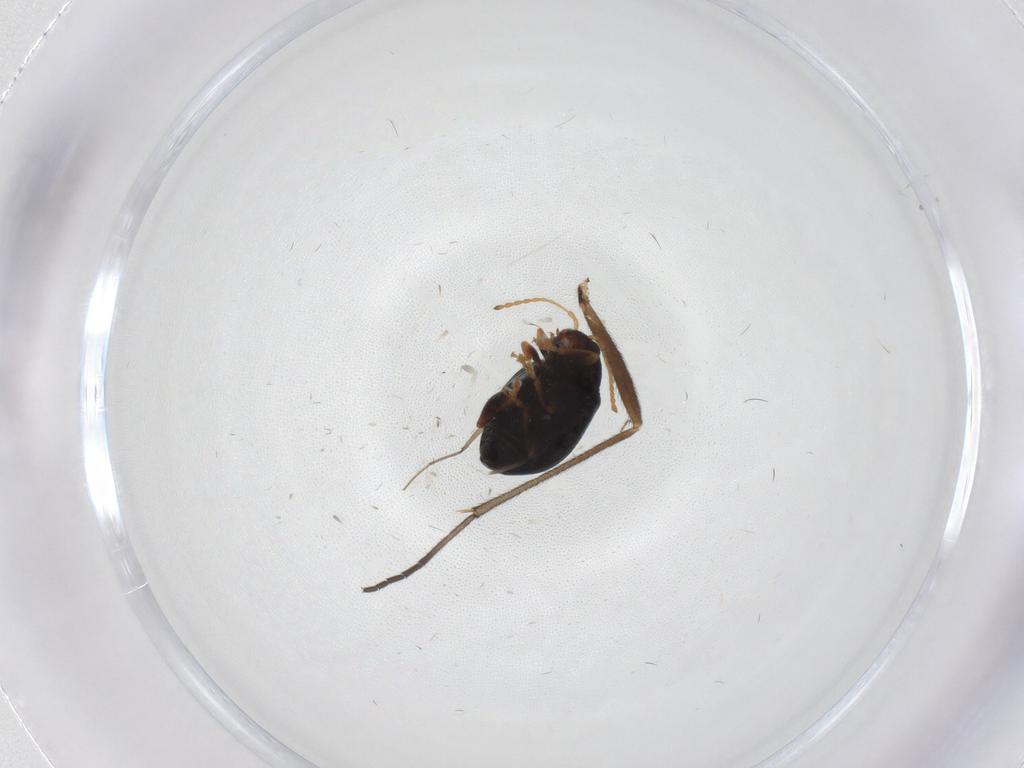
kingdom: Animalia
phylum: Arthropoda
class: Insecta
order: Diptera
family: Sciaridae
